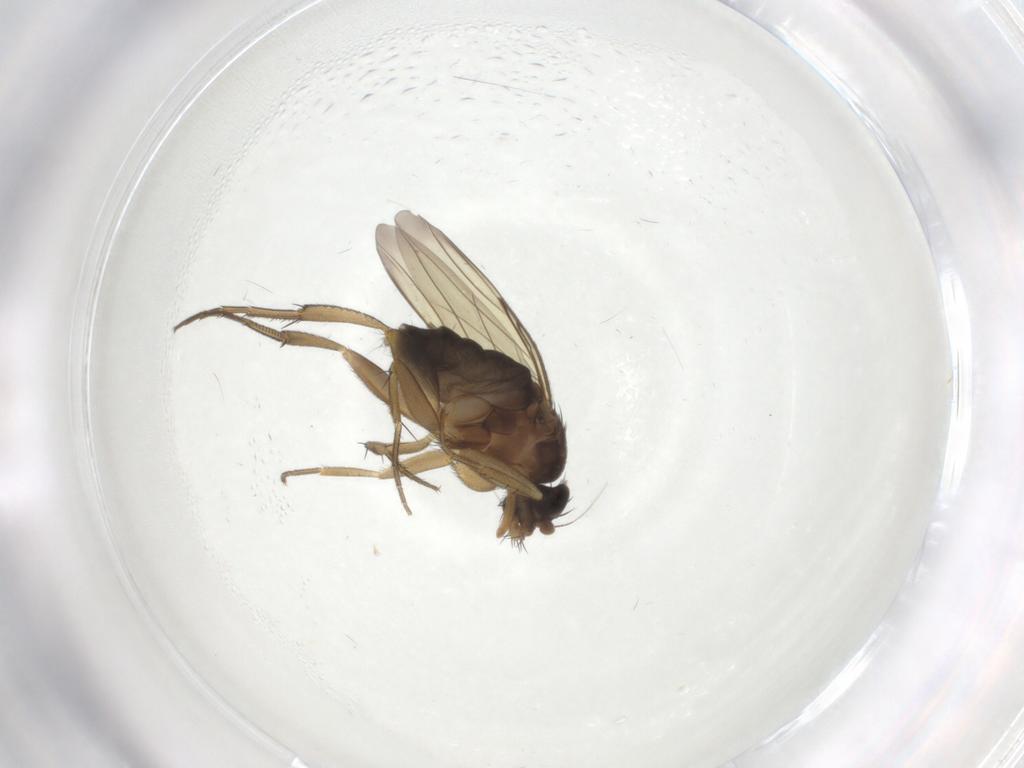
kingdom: Animalia
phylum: Arthropoda
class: Insecta
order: Diptera
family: Phoridae
